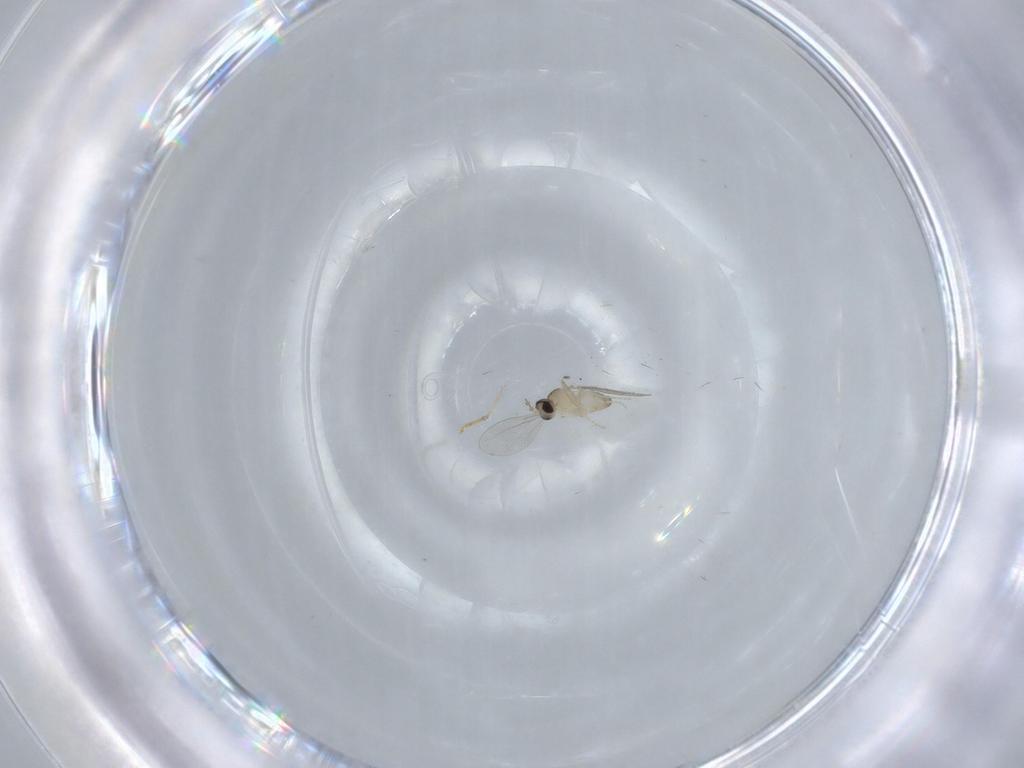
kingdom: Animalia
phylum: Arthropoda
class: Insecta
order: Diptera
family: Cecidomyiidae
